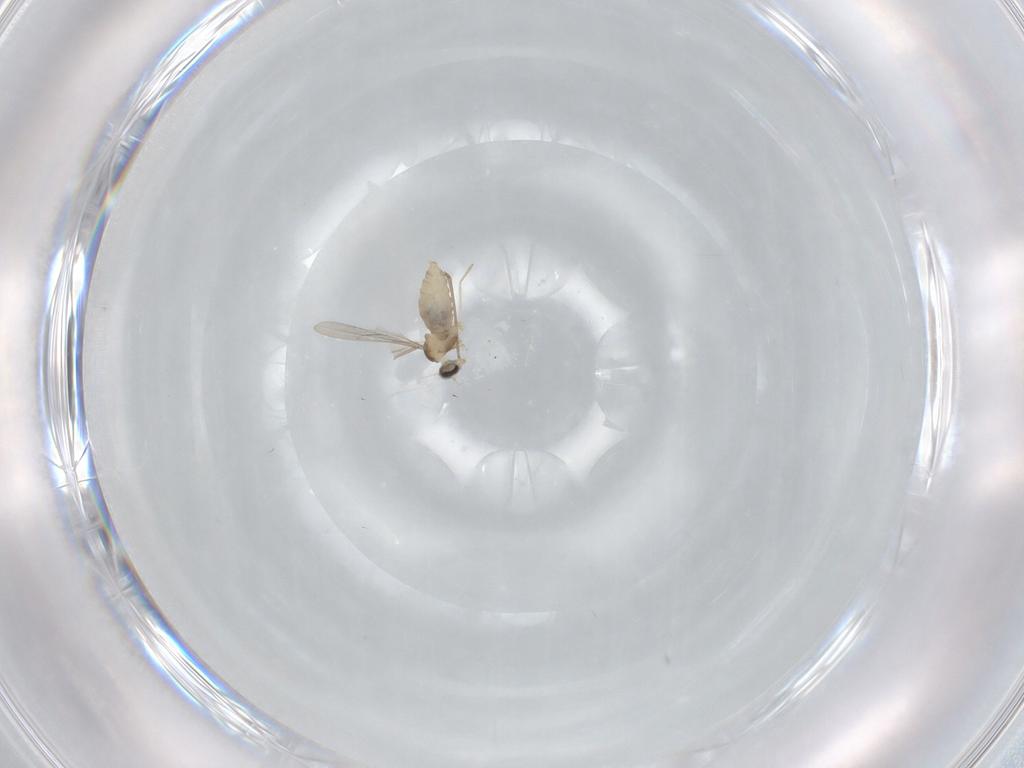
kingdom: Animalia
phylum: Arthropoda
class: Insecta
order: Diptera
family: Cecidomyiidae
